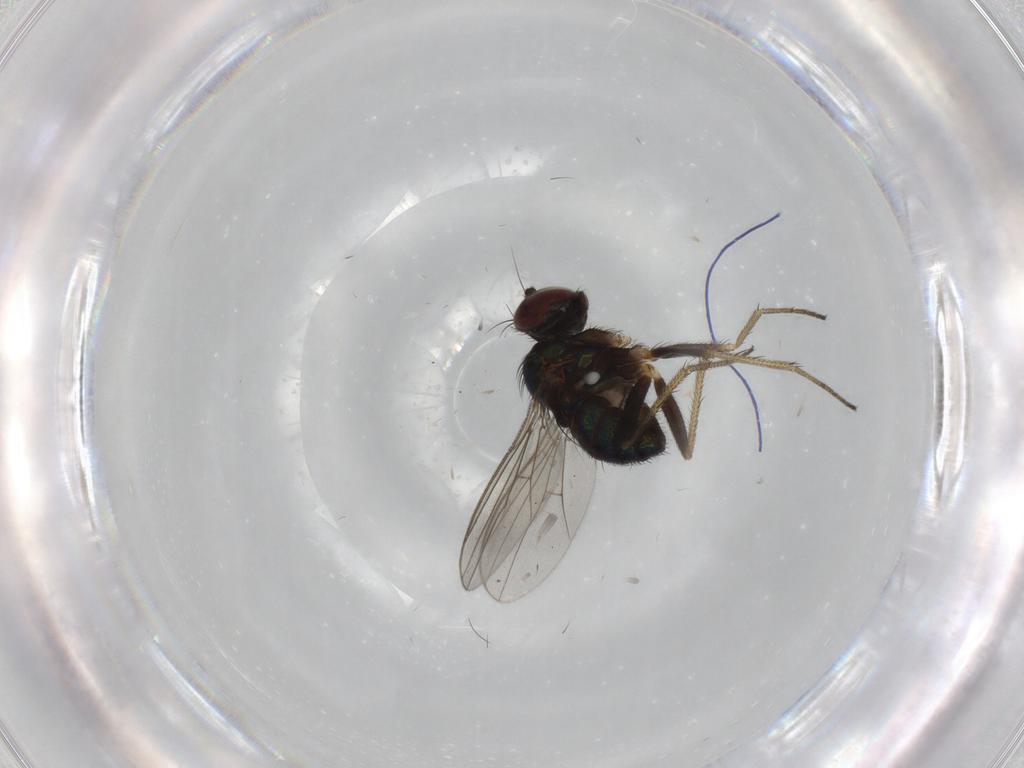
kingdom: Animalia
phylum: Arthropoda
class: Insecta
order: Diptera
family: Dolichopodidae
